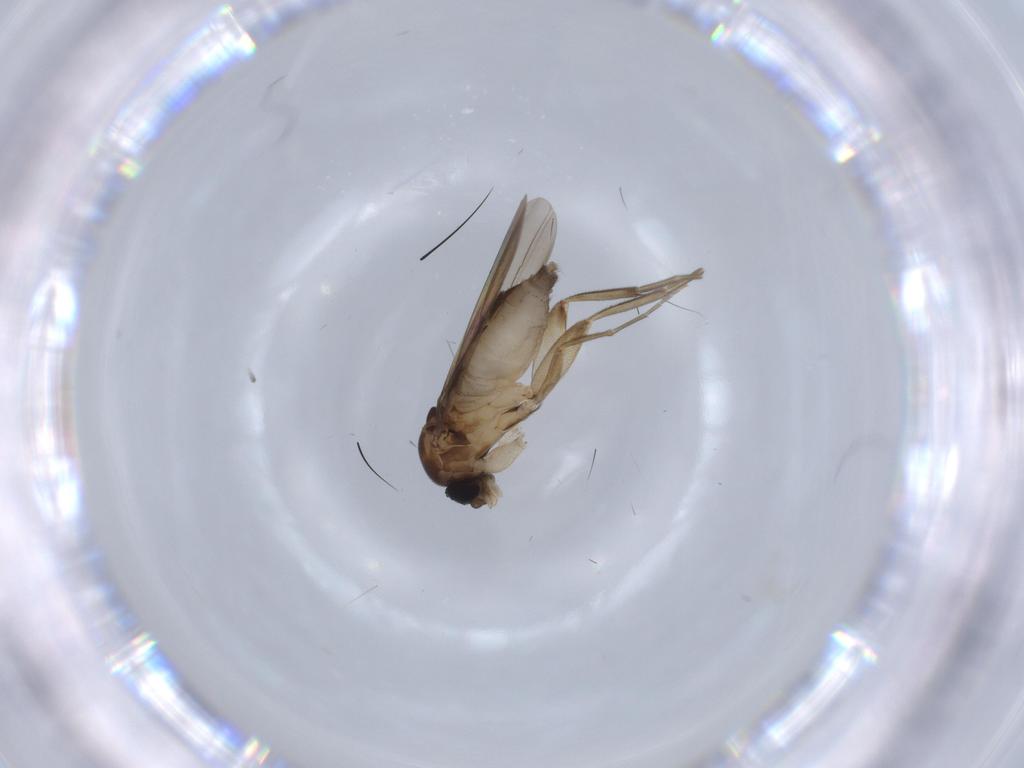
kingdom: Animalia
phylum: Arthropoda
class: Insecta
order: Diptera
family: Phoridae
